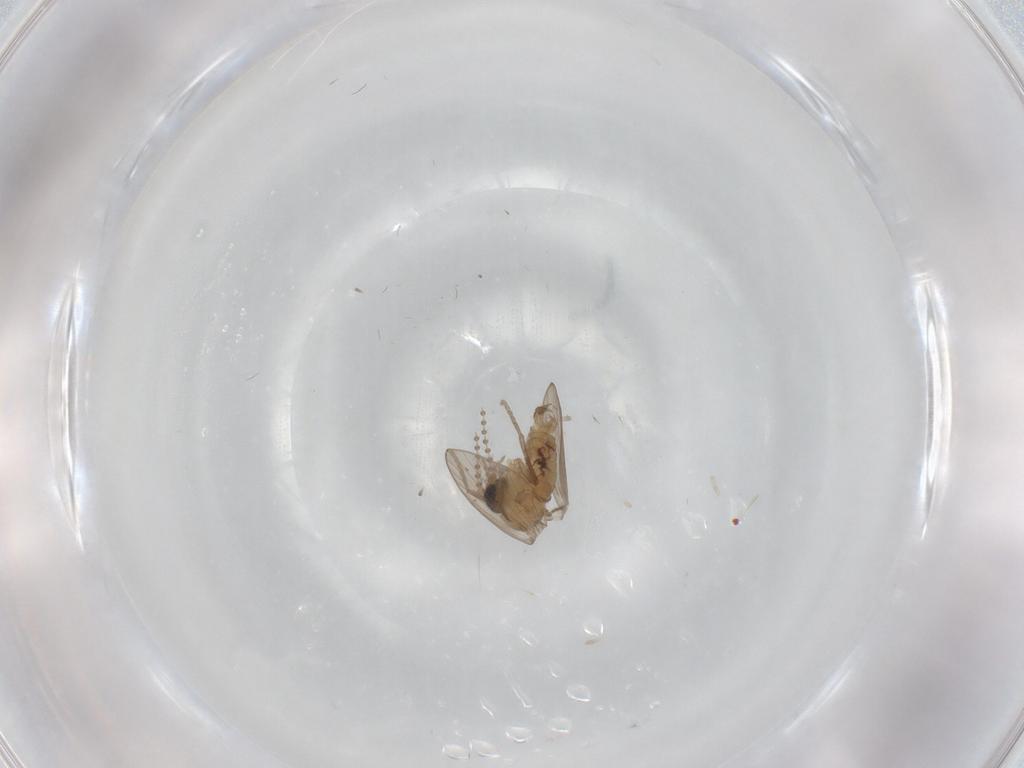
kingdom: Animalia
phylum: Arthropoda
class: Insecta
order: Diptera
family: Psychodidae
